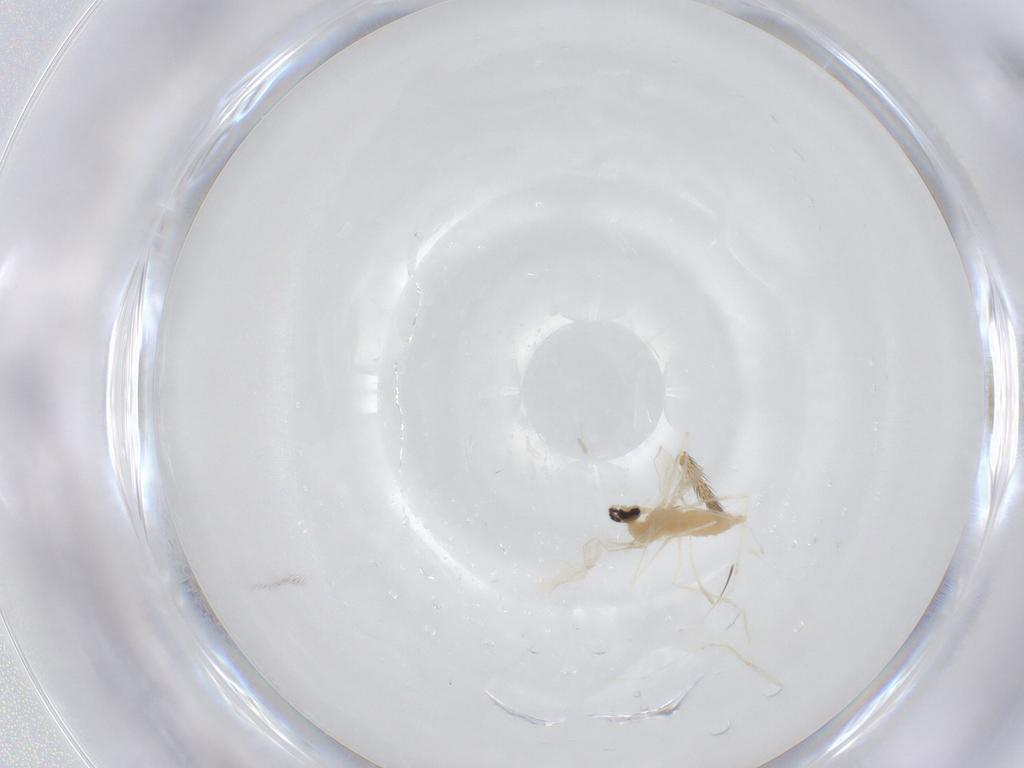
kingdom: Animalia
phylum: Arthropoda
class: Insecta
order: Diptera
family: Cecidomyiidae
